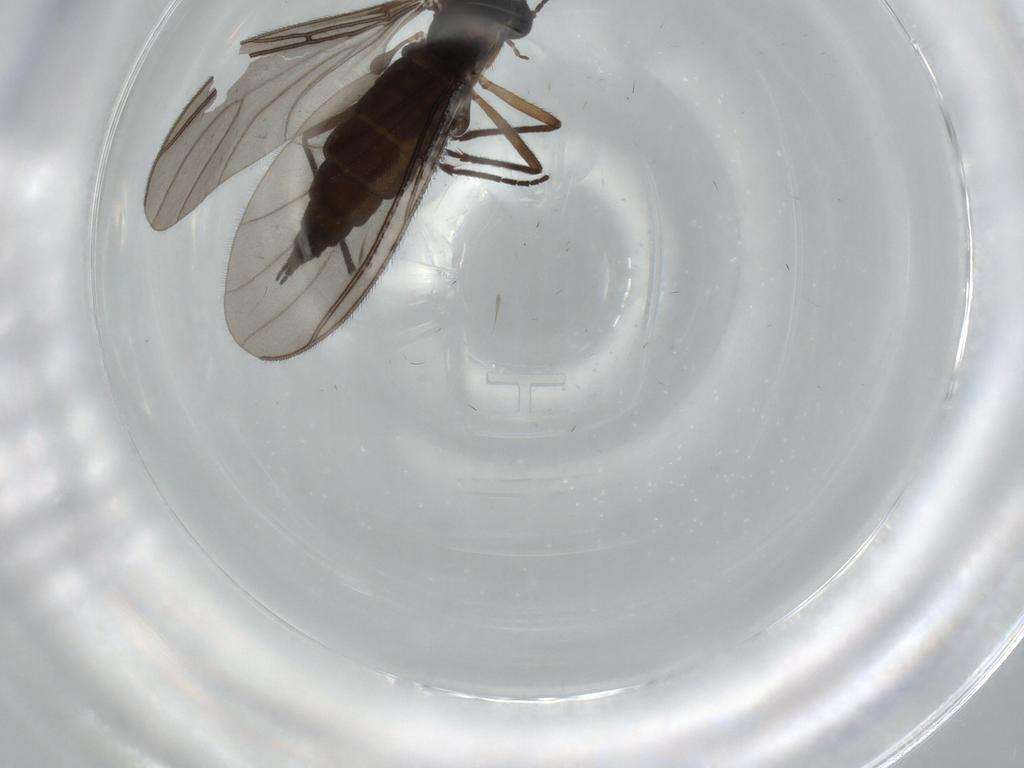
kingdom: Animalia
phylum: Arthropoda
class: Insecta
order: Diptera
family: Sciaridae
